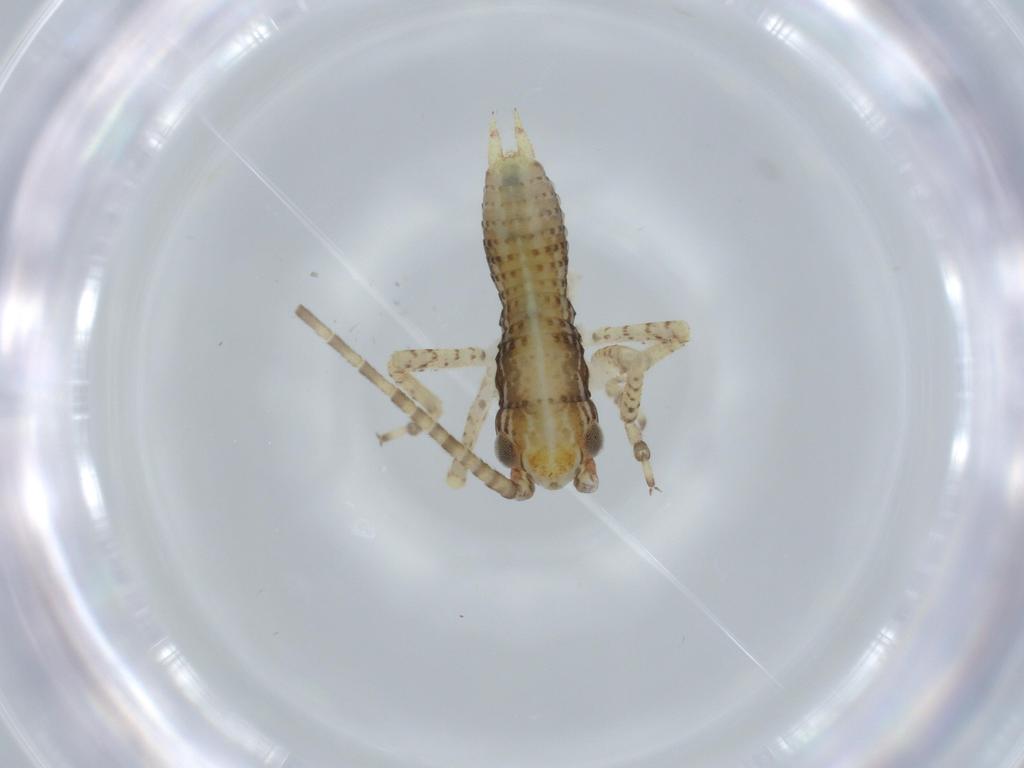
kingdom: Animalia
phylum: Arthropoda
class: Insecta
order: Orthoptera
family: Gryllidae
